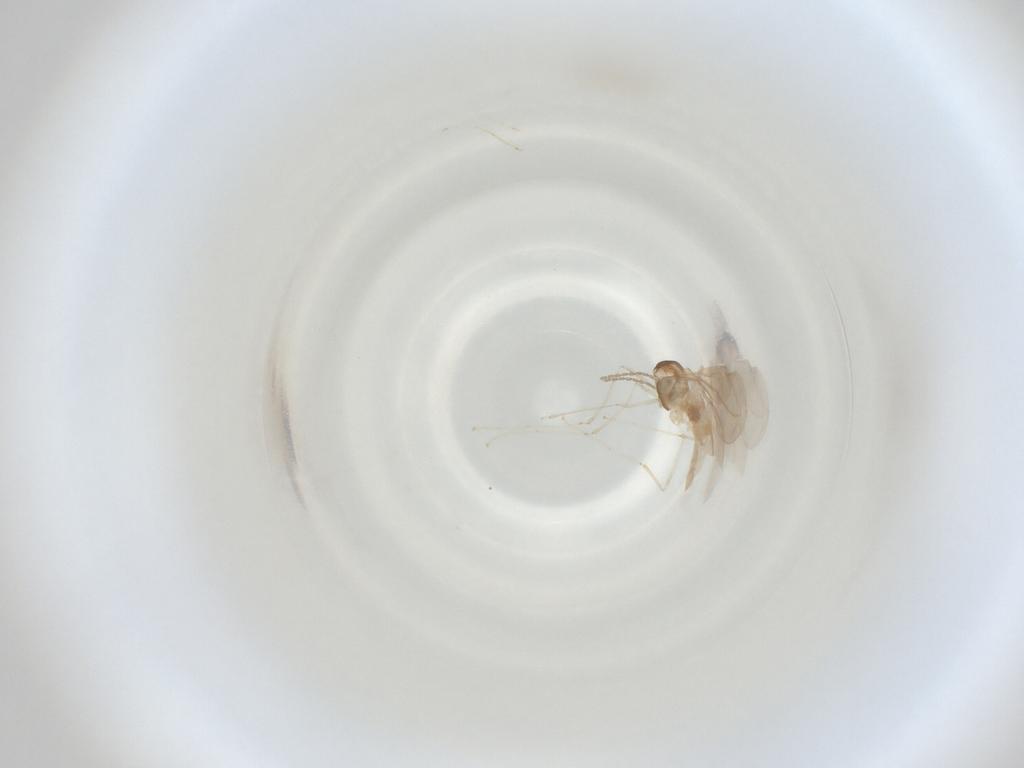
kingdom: Animalia
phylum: Arthropoda
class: Insecta
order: Diptera
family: Cecidomyiidae
